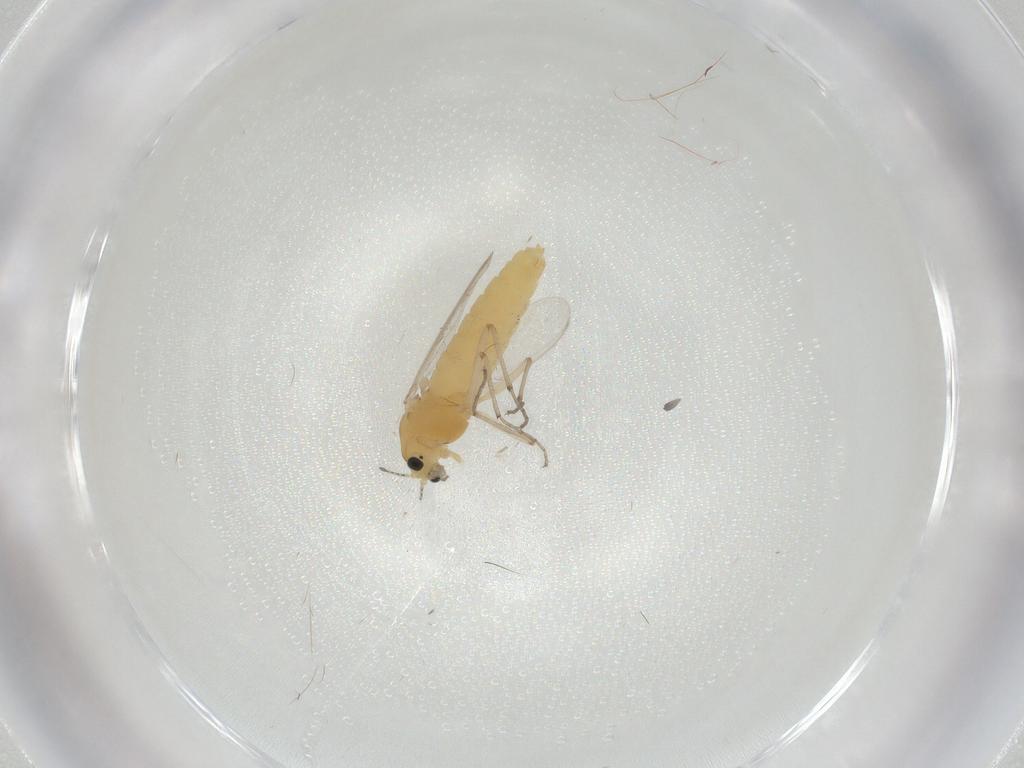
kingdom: Animalia
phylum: Arthropoda
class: Insecta
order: Diptera
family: Chironomidae
